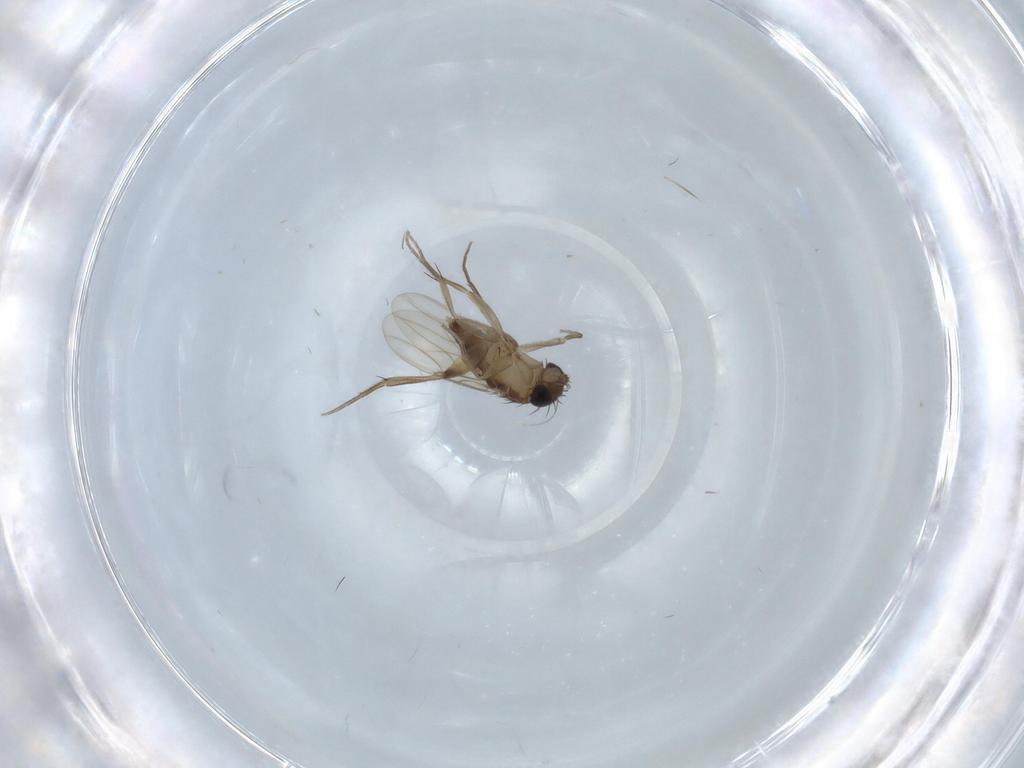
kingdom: Animalia
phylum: Arthropoda
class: Insecta
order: Diptera
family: Phoridae
